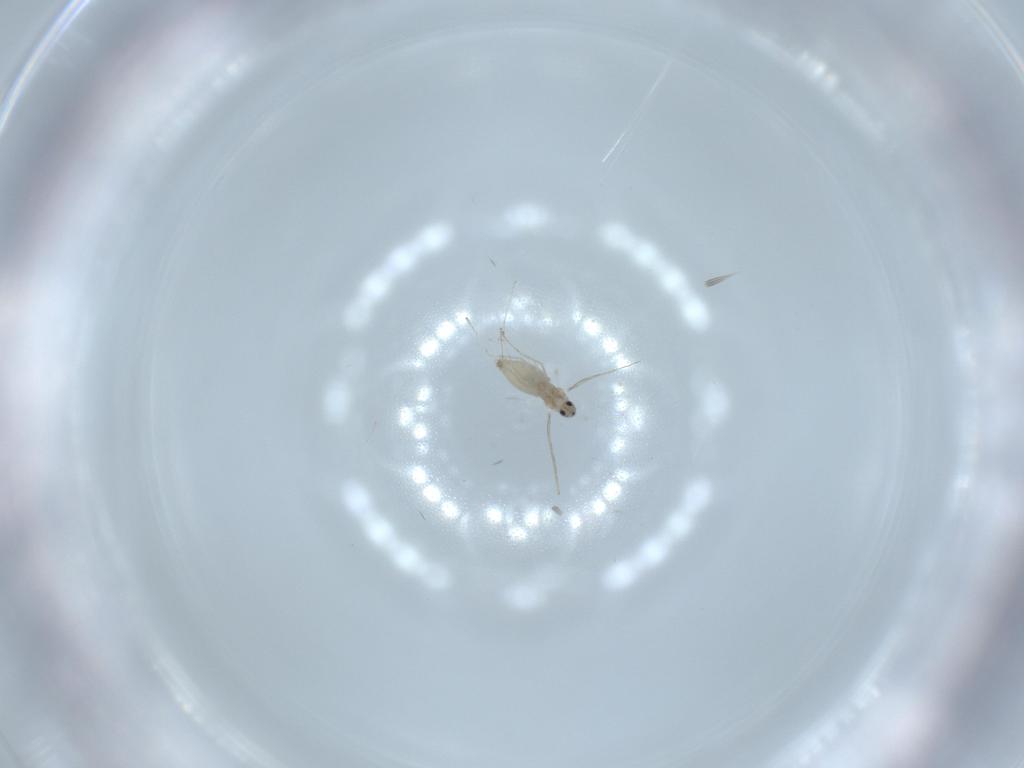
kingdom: Animalia
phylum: Arthropoda
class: Insecta
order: Diptera
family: Cecidomyiidae
